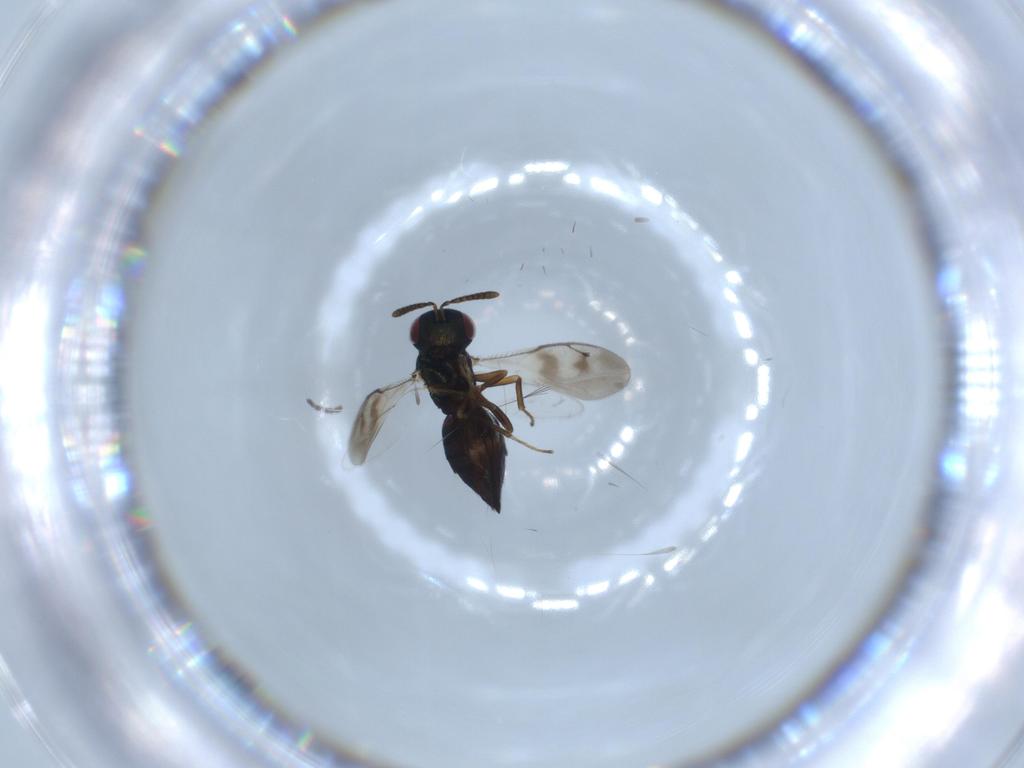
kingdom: Animalia
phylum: Arthropoda
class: Insecta
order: Hymenoptera
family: Pteromalidae
